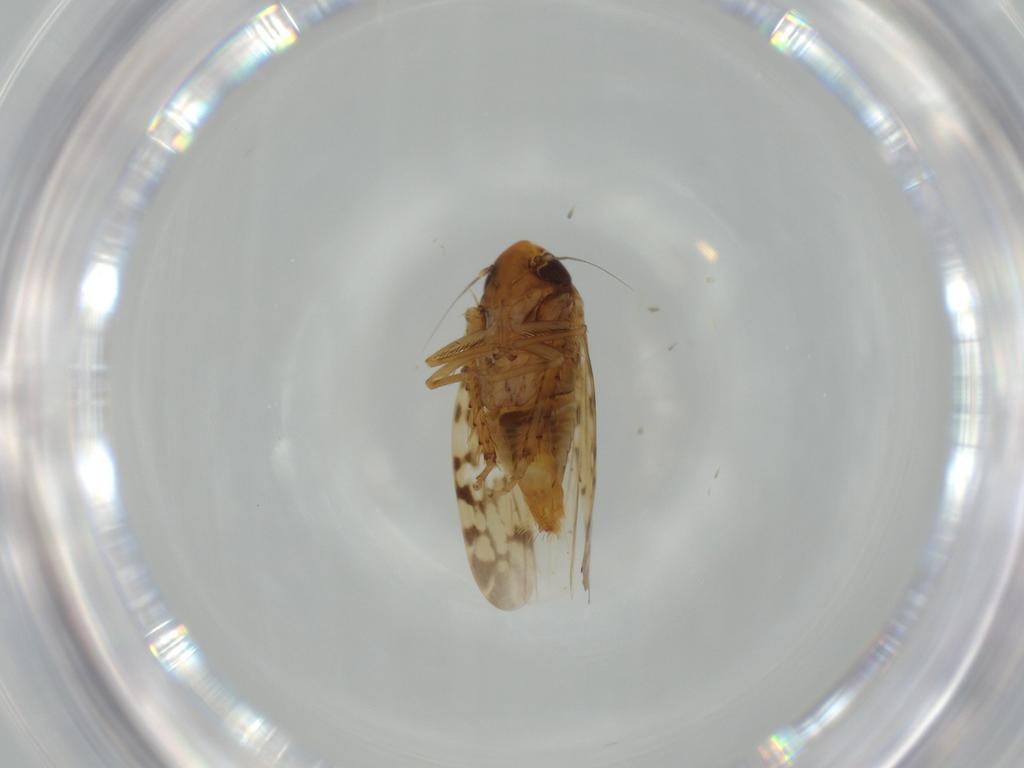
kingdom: Animalia
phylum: Arthropoda
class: Insecta
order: Hemiptera
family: Cicadellidae
